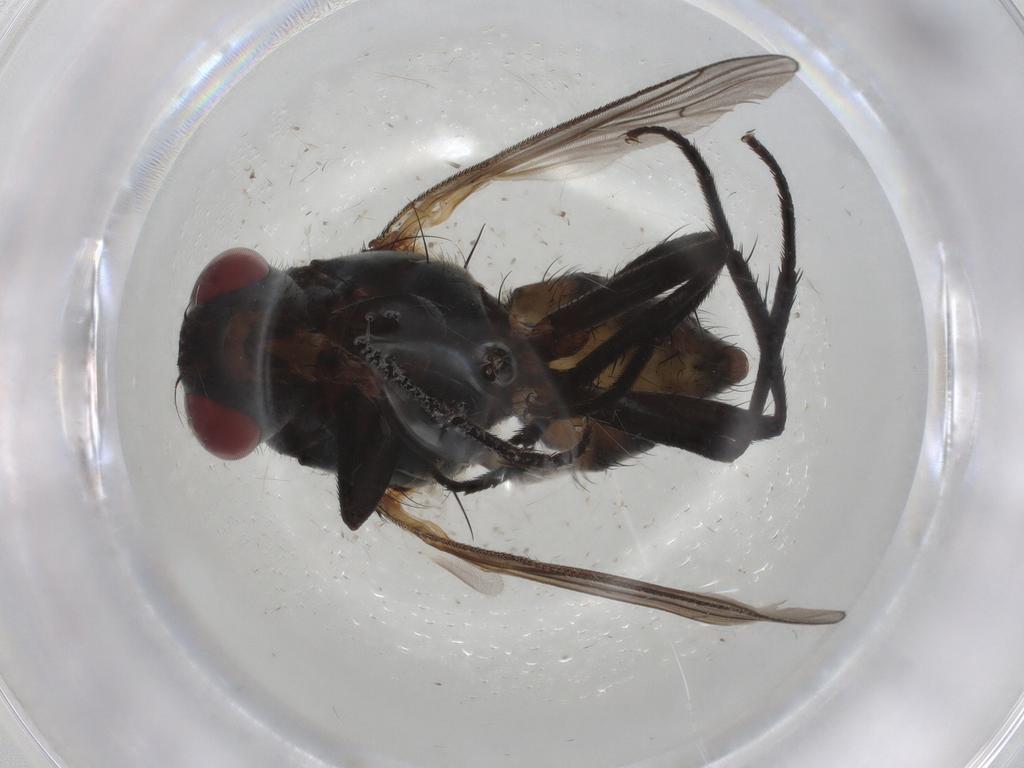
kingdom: Animalia
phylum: Arthropoda
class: Insecta
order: Diptera
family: Anthomyiidae
